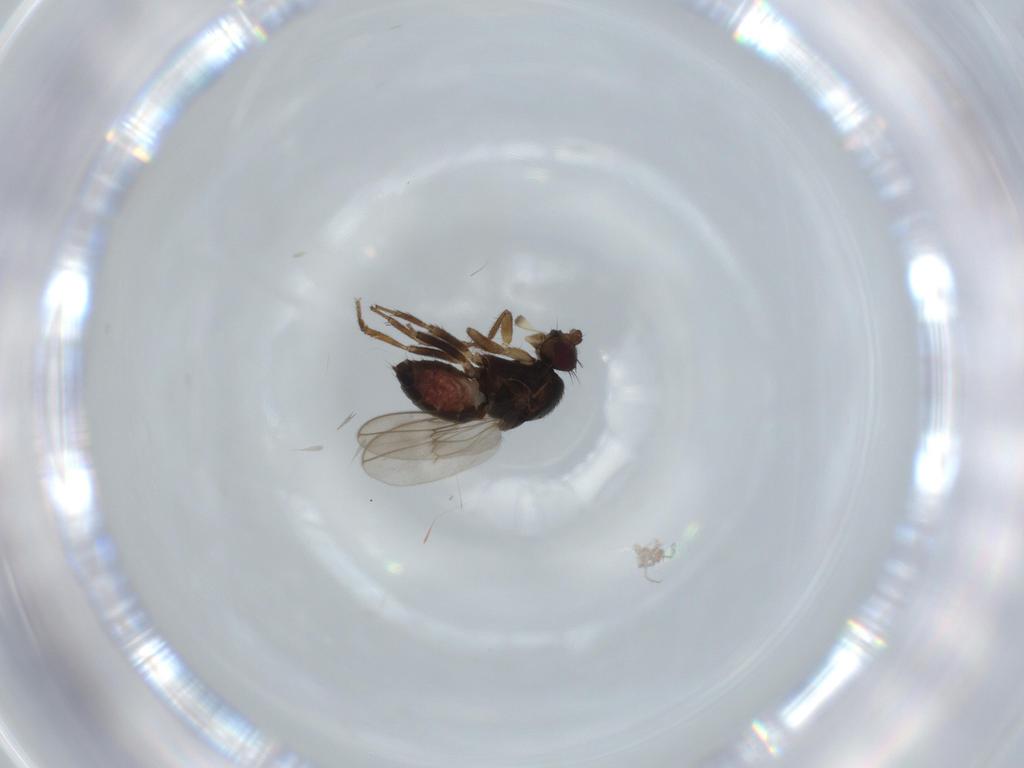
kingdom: Animalia
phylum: Arthropoda
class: Insecta
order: Diptera
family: Sphaeroceridae
